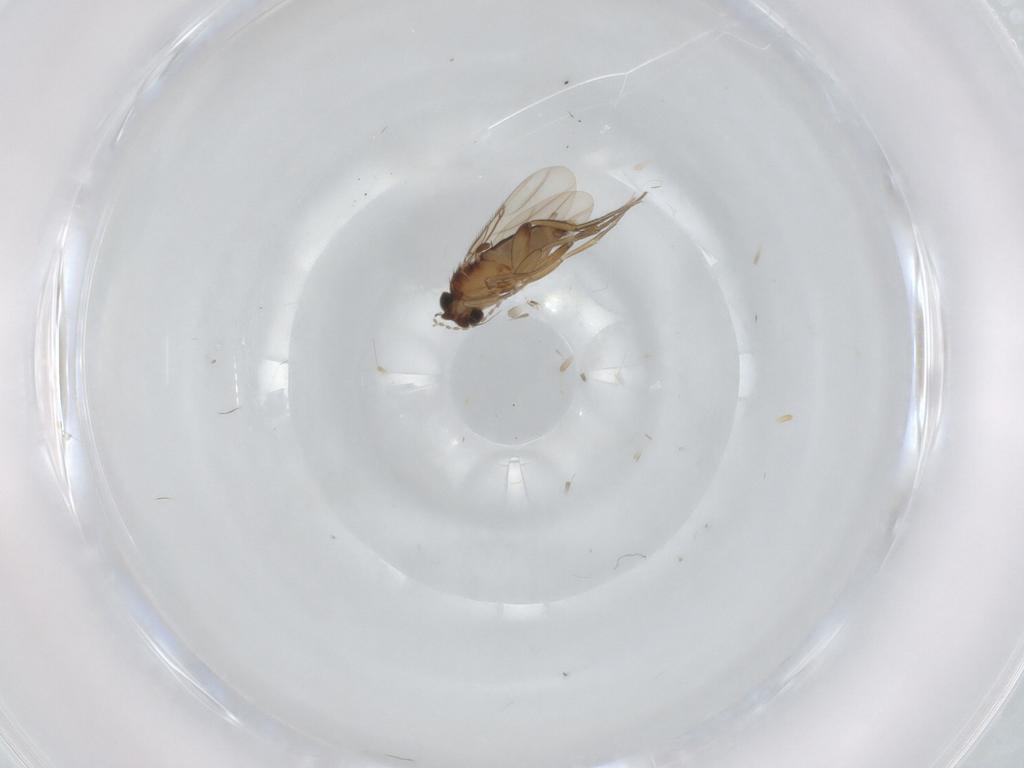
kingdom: Animalia
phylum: Arthropoda
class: Insecta
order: Diptera
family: Phoridae
